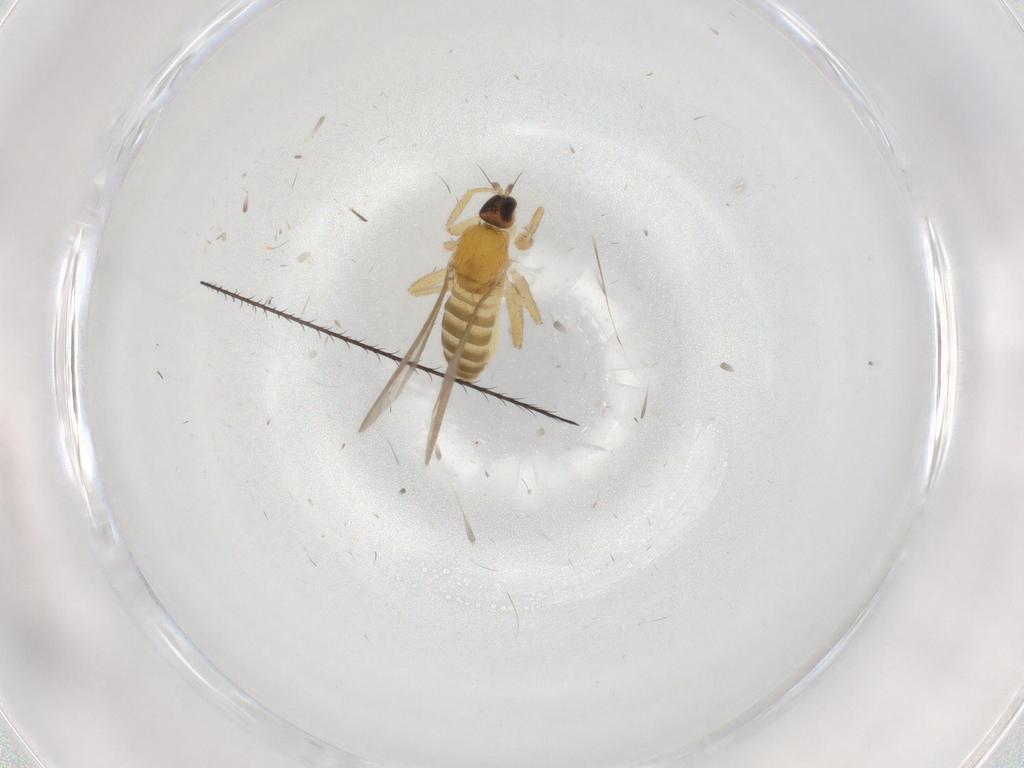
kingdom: Animalia
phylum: Arthropoda
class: Insecta
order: Diptera
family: Hybotidae
